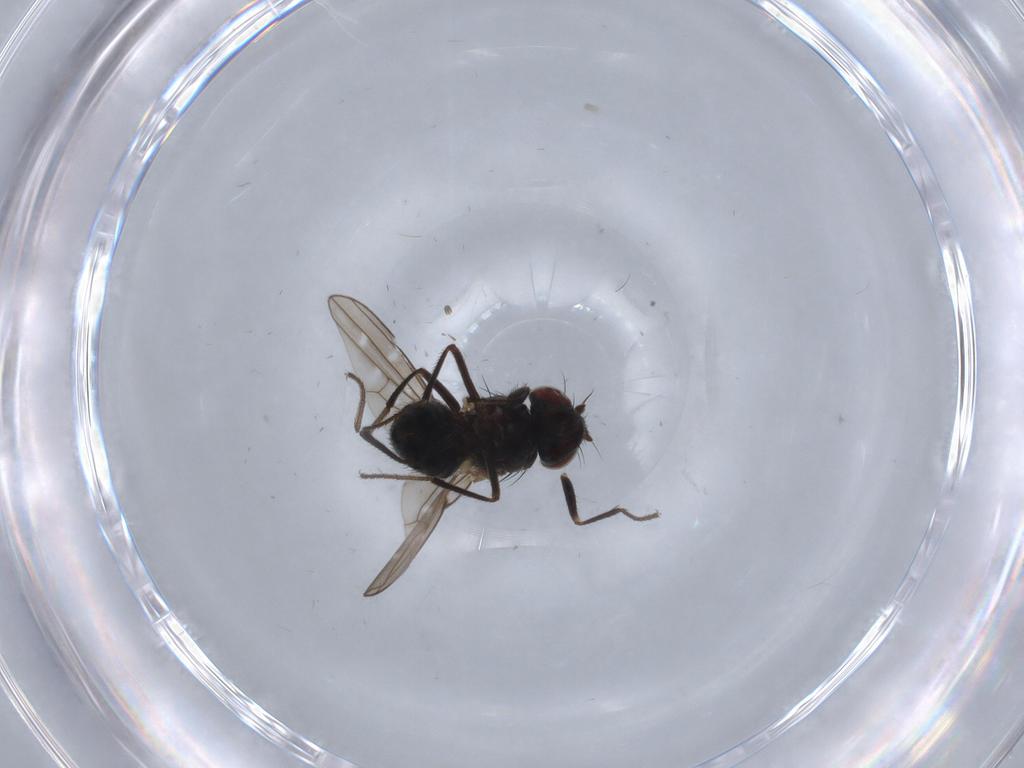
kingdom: Animalia
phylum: Arthropoda
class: Insecta
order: Diptera
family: Ephydridae
